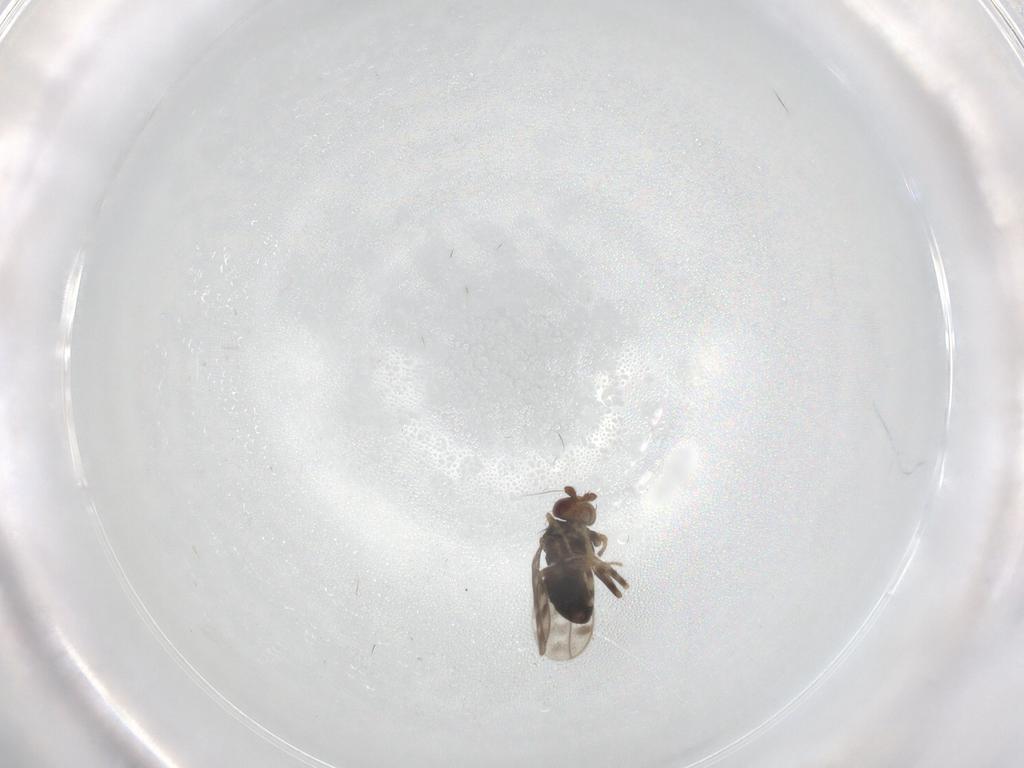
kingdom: Animalia
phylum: Arthropoda
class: Insecta
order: Diptera
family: Sphaeroceridae
